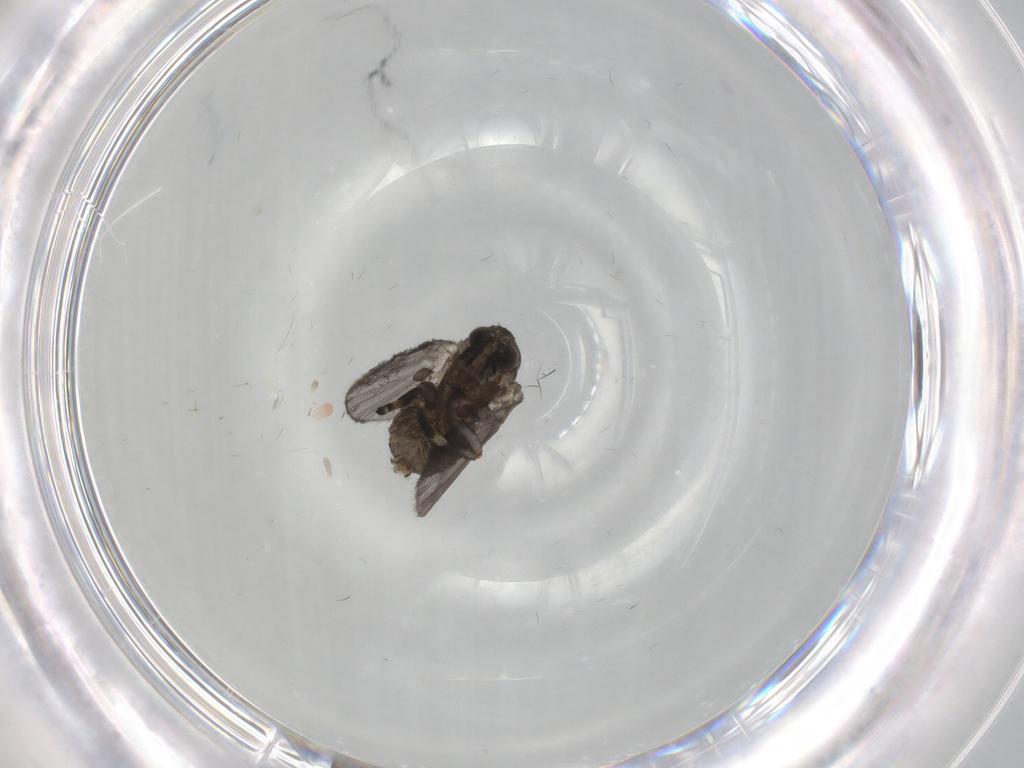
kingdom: Animalia
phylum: Arthropoda
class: Insecta
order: Diptera
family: Psychodidae
